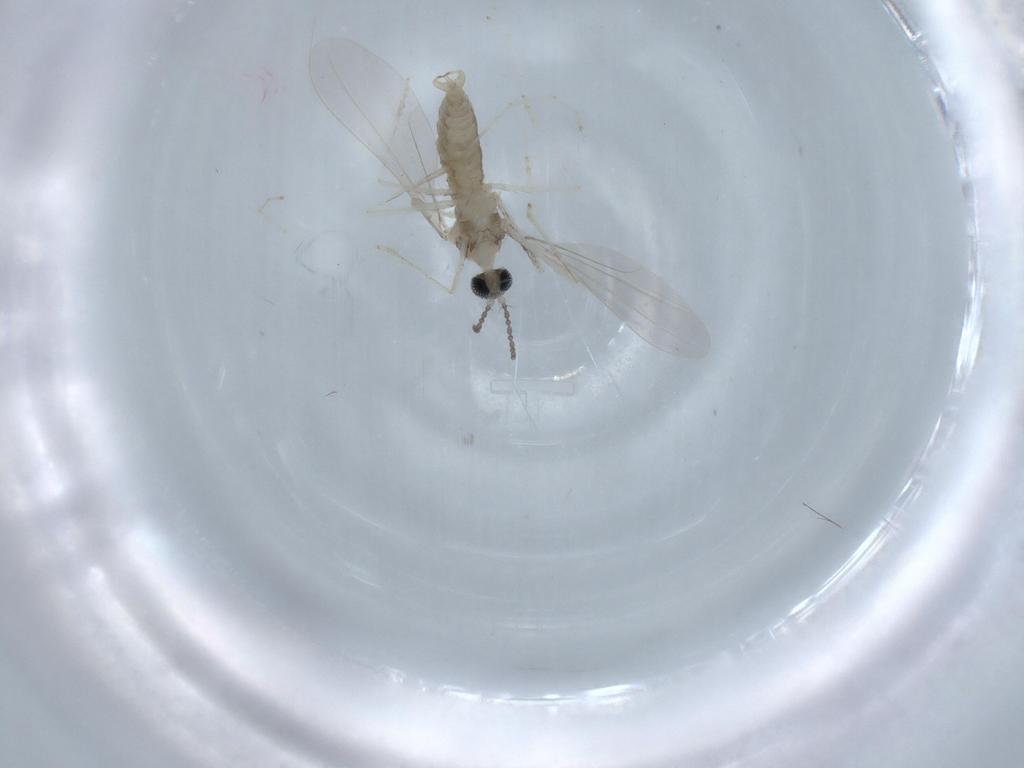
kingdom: Animalia
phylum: Arthropoda
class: Insecta
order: Diptera
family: Cecidomyiidae
